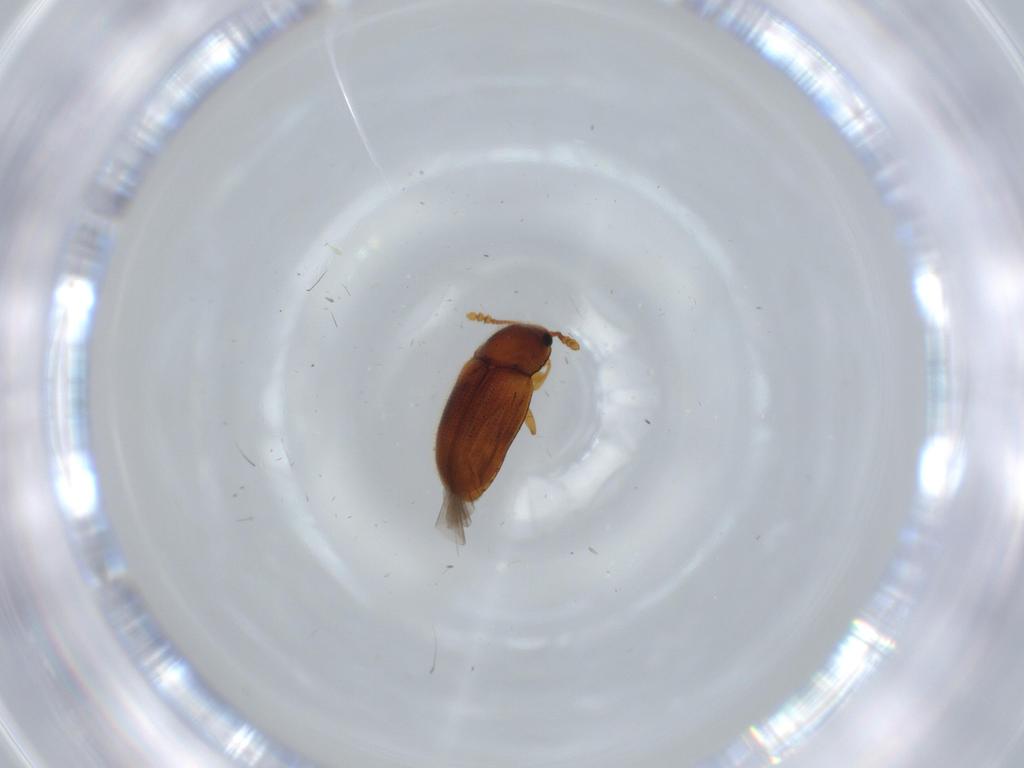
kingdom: Animalia
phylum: Arthropoda
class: Insecta
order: Coleoptera
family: Erotylidae
